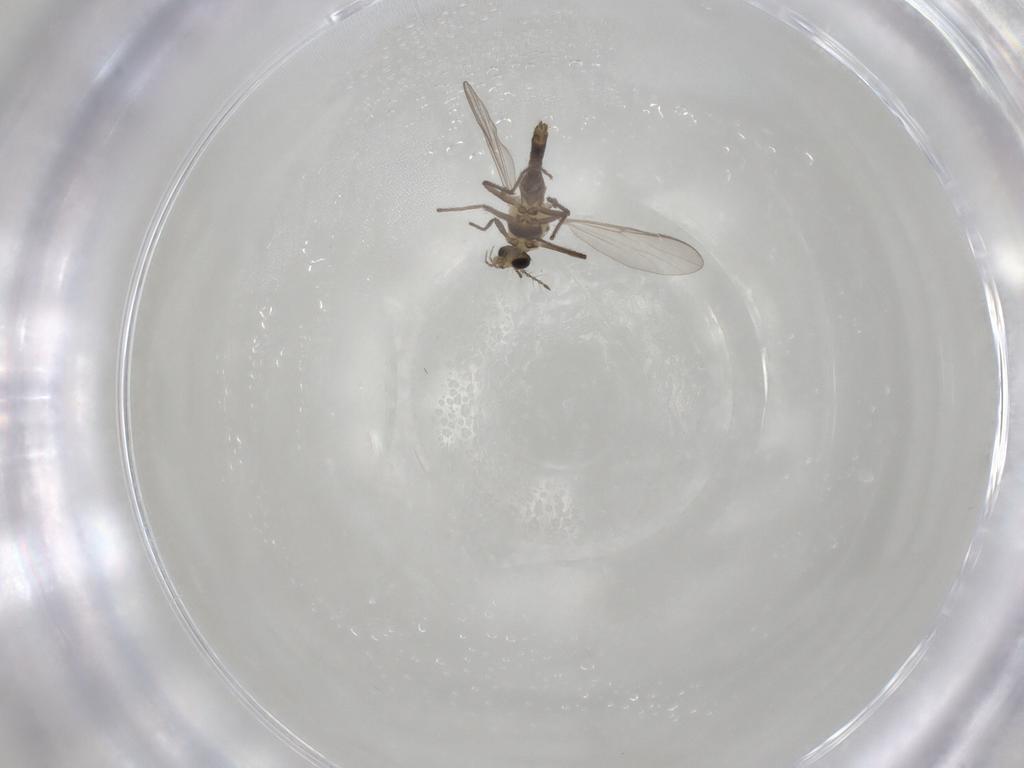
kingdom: Animalia
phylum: Arthropoda
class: Insecta
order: Diptera
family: Chironomidae
